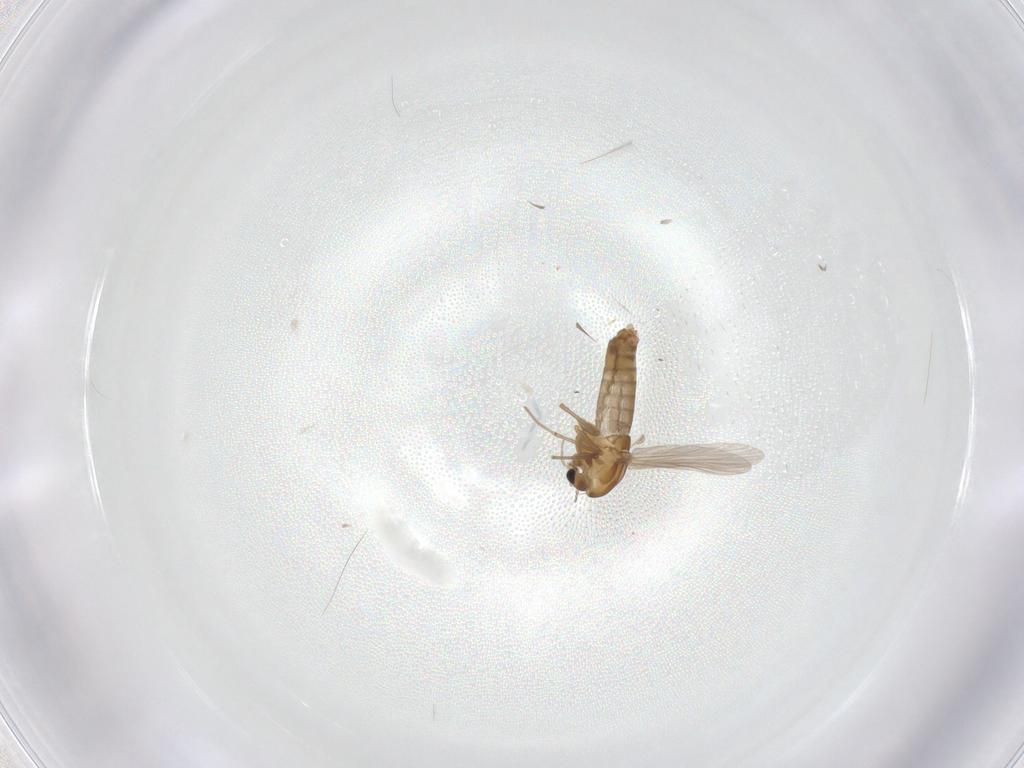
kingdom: Animalia
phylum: Arthropoda
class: Insecta
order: Diptera
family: Chironomidae
